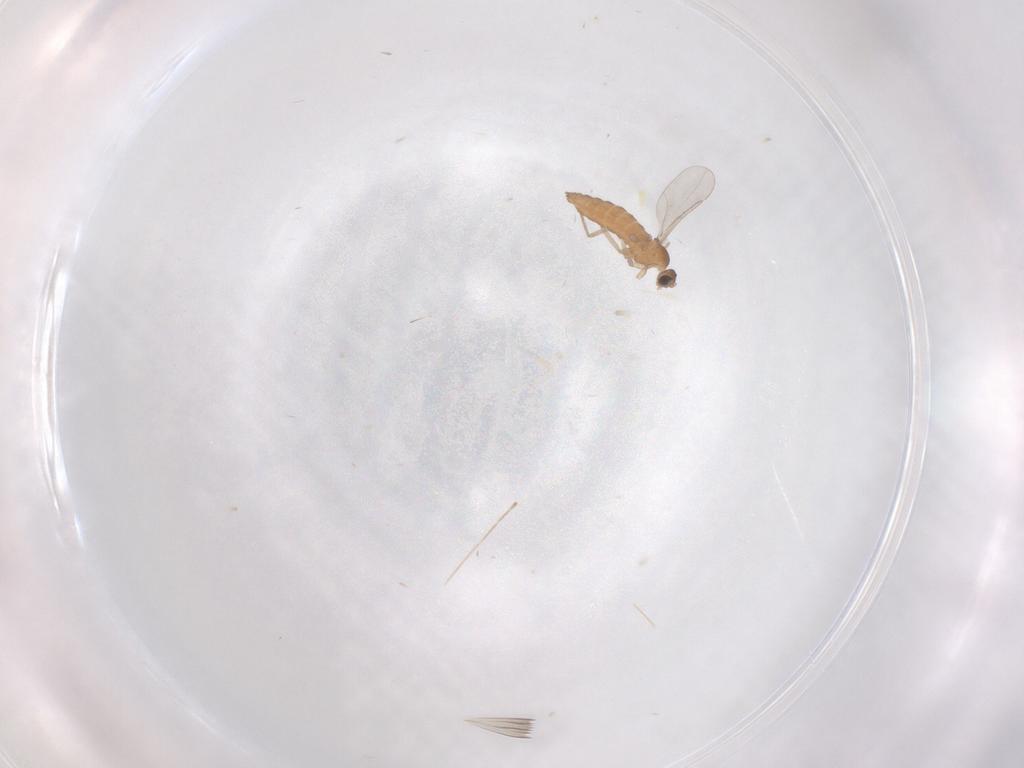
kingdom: Animalia
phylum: Arthropoda
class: Insecta
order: Diptera
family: Cecidomyiidae
